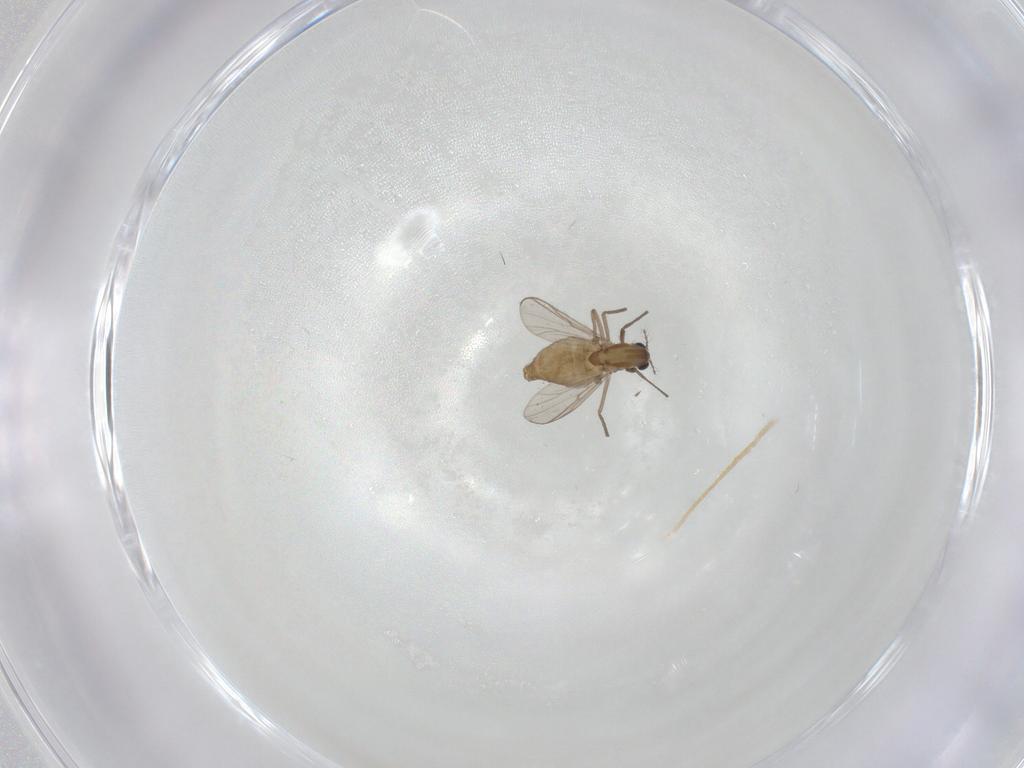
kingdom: Animalia
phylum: Arthropoda
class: Insecta
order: Diptera
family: Chironomidae
